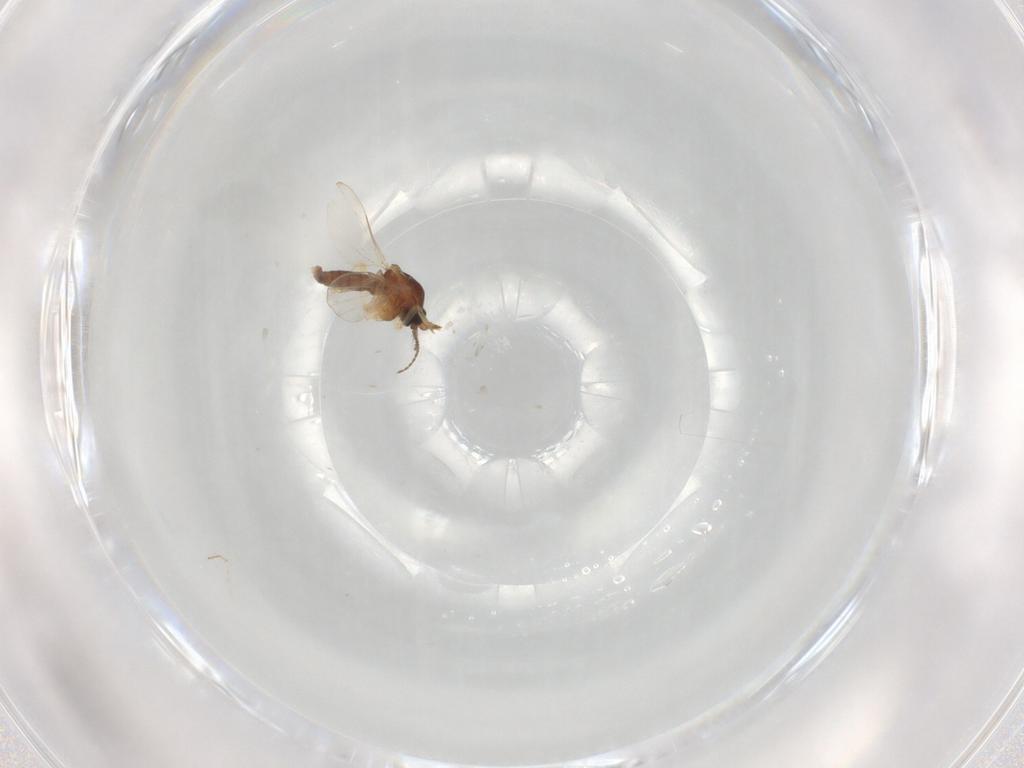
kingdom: Animalia
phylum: Arthropoda
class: Insecta
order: Diptera
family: Ceratopogonidae
